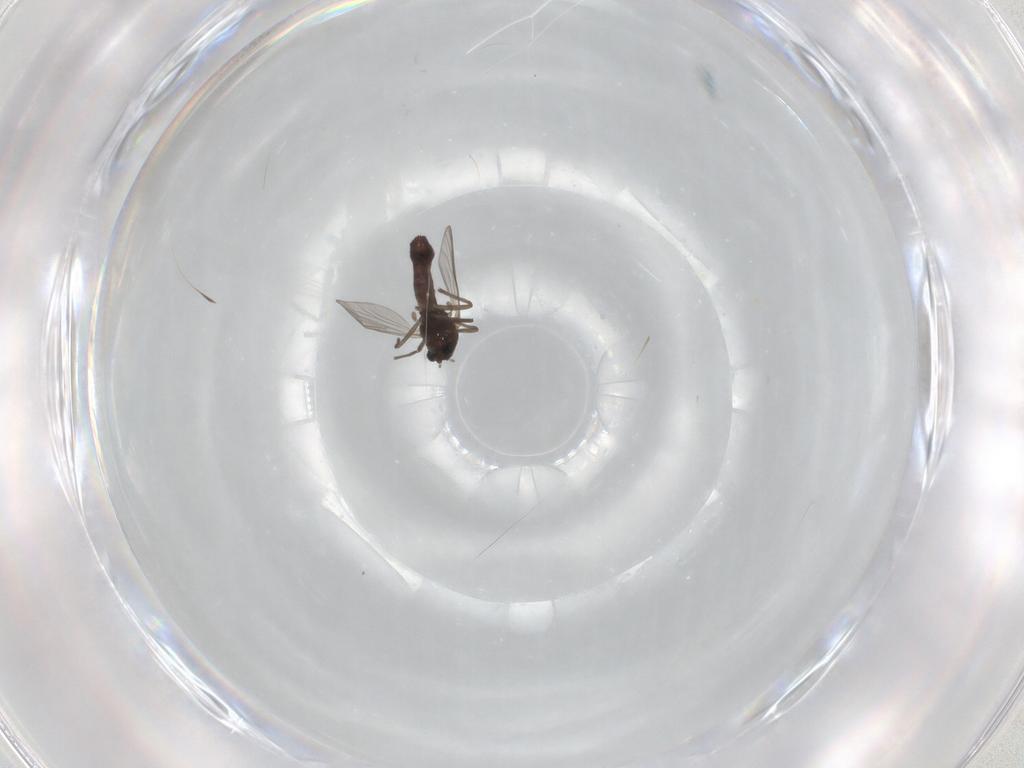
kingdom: Animalia
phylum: Arthropoda
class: Insecta
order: Diptera
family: Chironomidae
